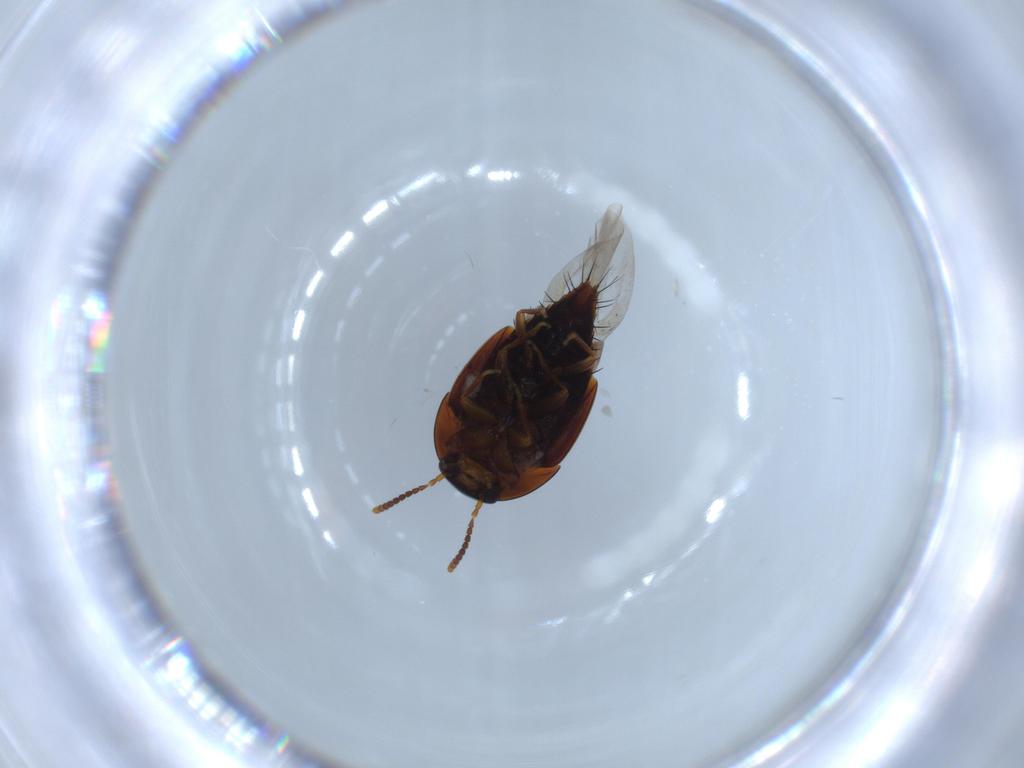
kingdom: Animalia
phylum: Arthropoda
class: Insecta
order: Coleoptera
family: Staphylinidae
